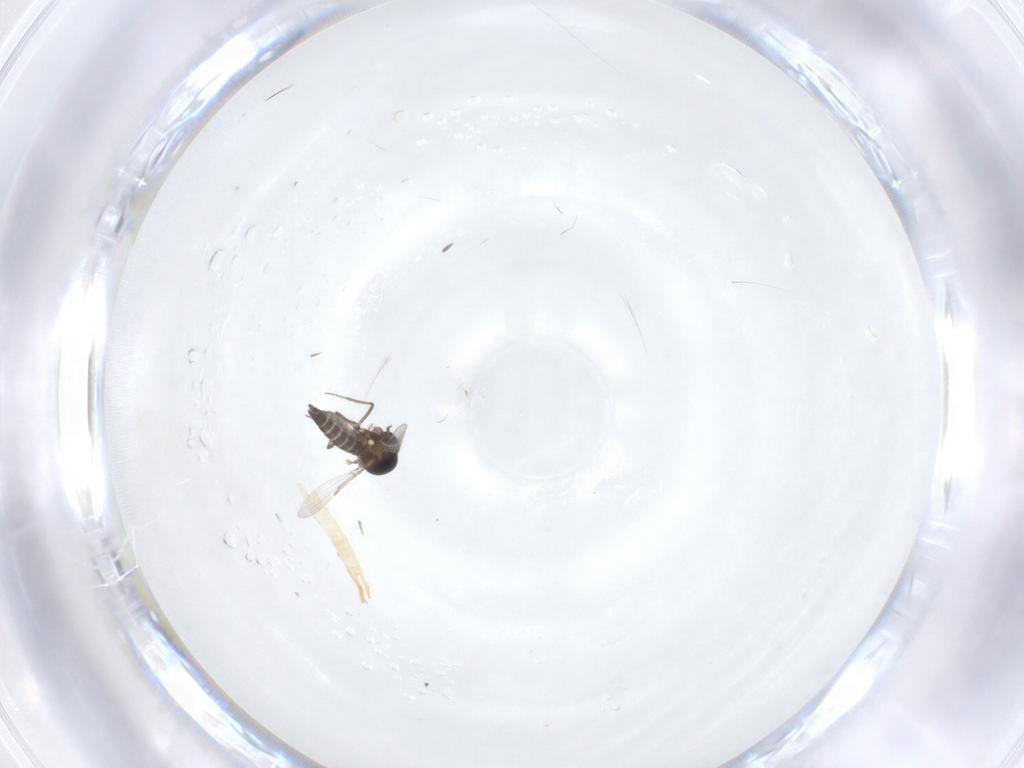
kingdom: Animalia
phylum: Arthropoda
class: Insecta
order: Diptera
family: Ceratopogonidae
